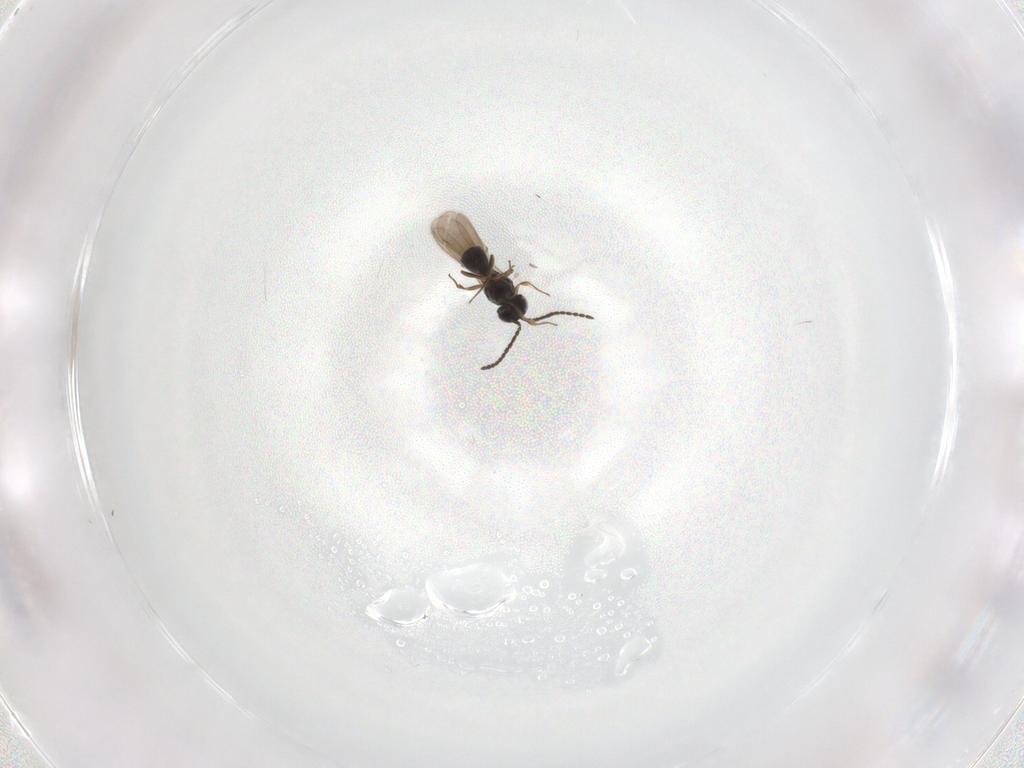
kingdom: Animalia
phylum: Arthropoda
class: Insecta
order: Hymenoptera
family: Scelionidae
